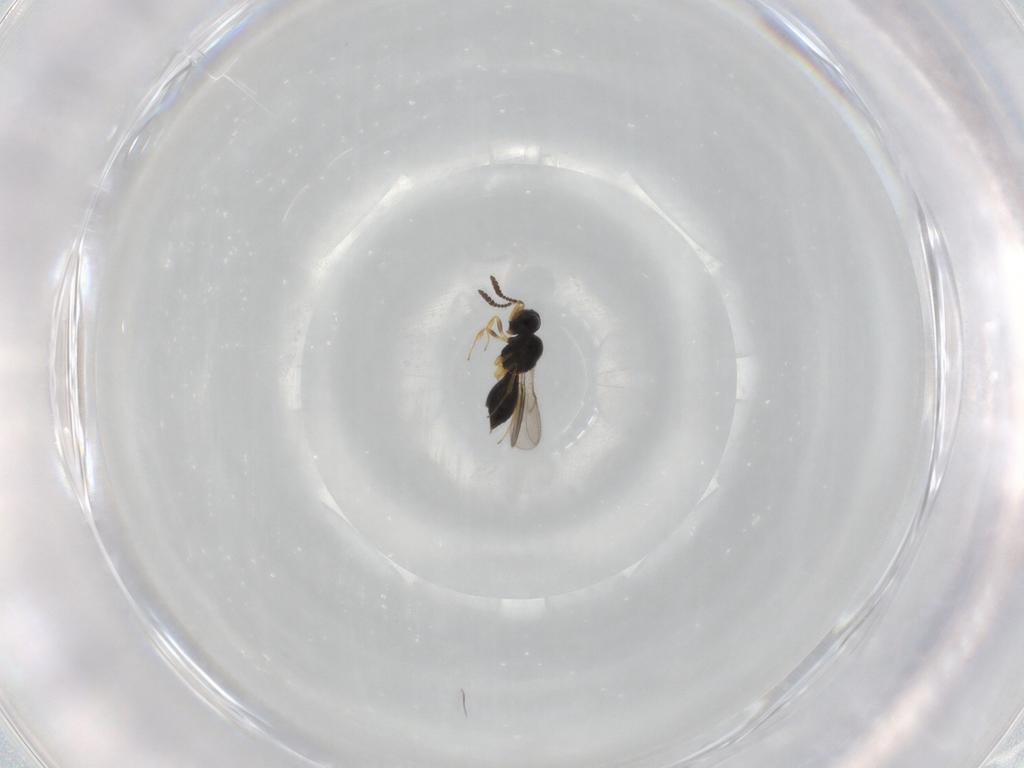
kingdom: Animalia
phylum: Arthropoda
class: Insecta
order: Hymenoptera
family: Scelionidae
